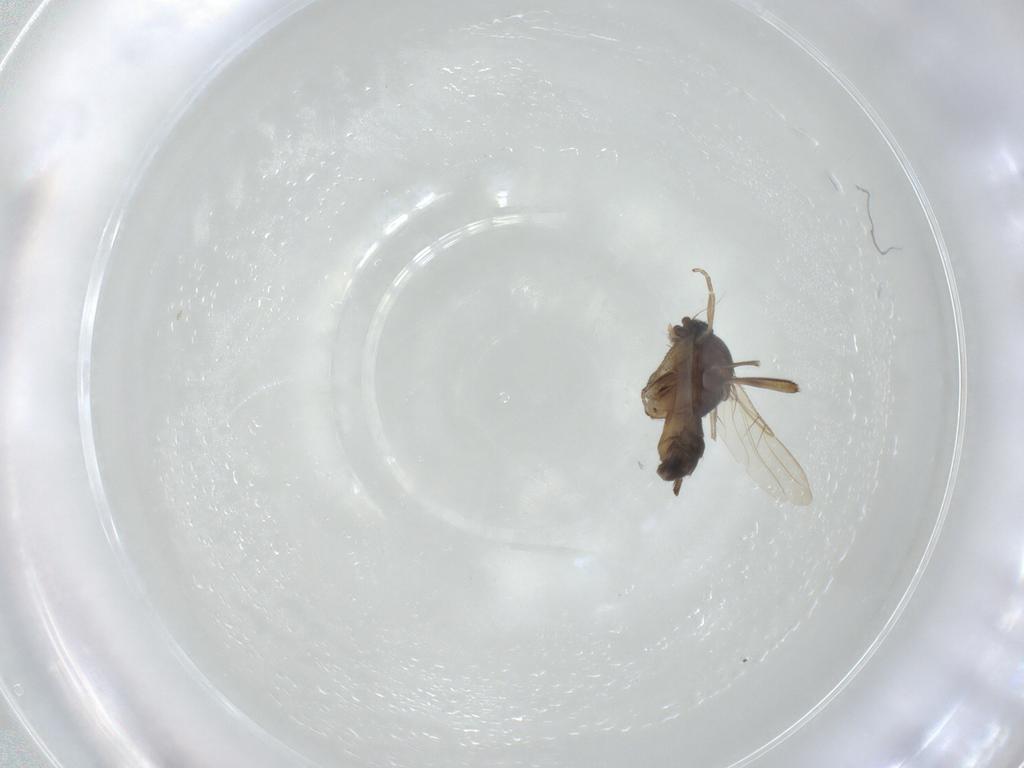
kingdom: Animalia
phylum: Arthropoda
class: Insecta
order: Diptera
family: Phoridae
